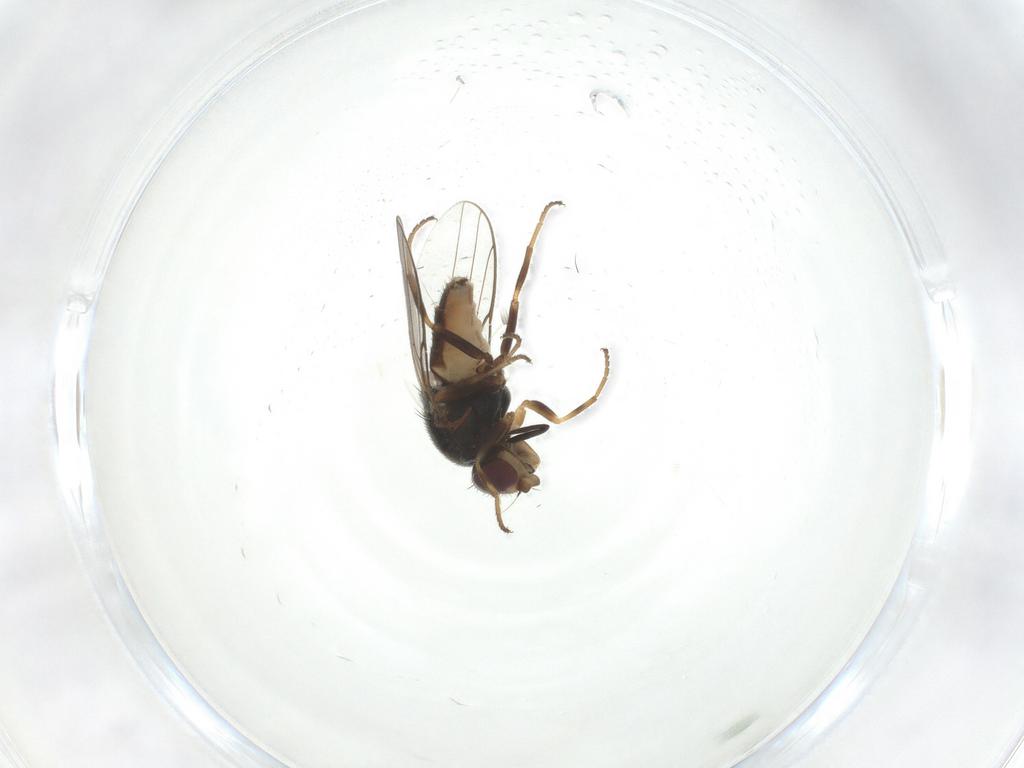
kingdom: Animalia
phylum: Arthropoda
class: Insecta
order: Diptera
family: Chloropidae
